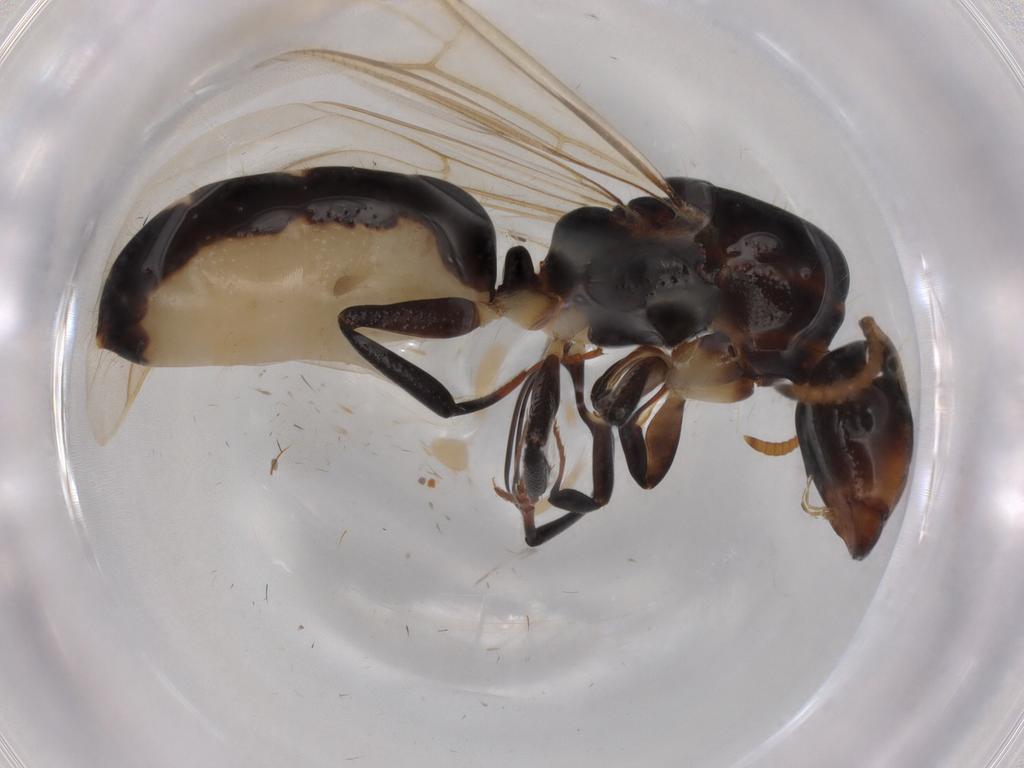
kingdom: Animalia
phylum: Arthropoda
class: Insecta
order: Hymenoptera
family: Formicidae
